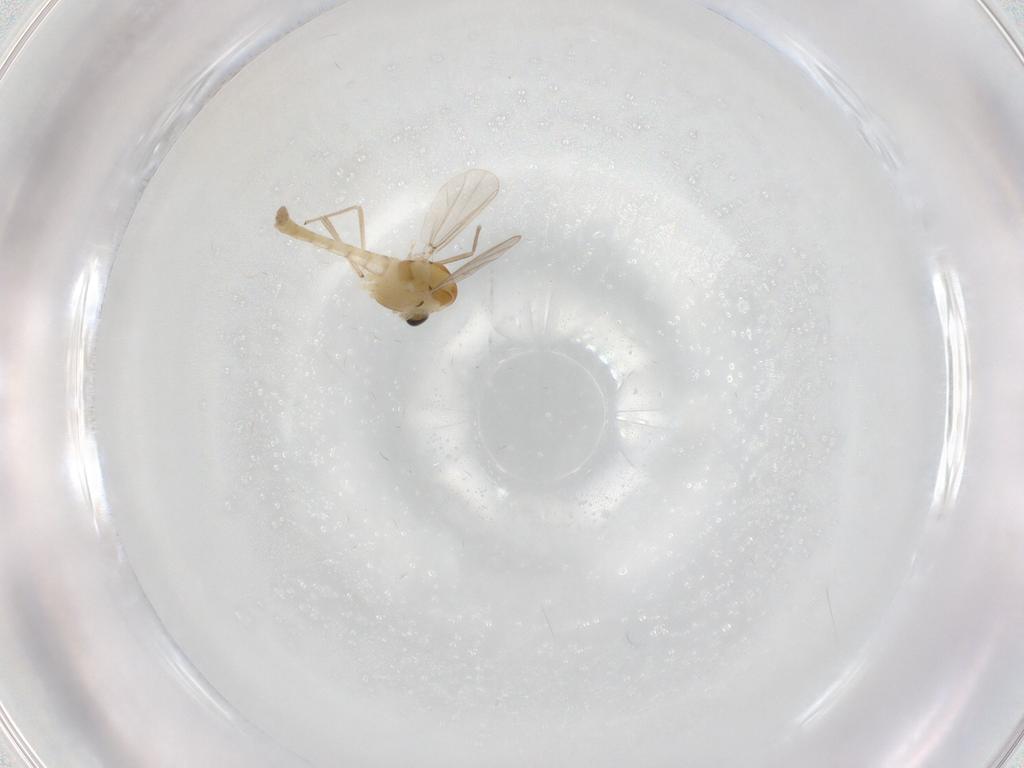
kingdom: Animalia
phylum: Arthropoda
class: Insecta
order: Diptera
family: Chironomidae
